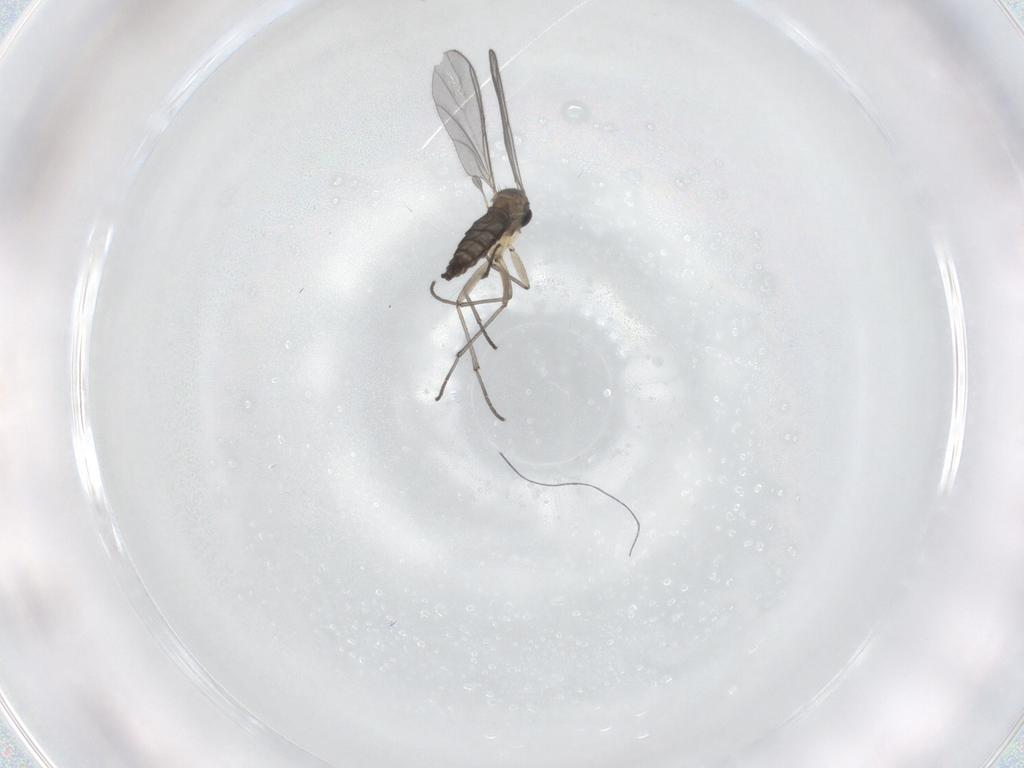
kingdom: Animalia
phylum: Arthropoda
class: Insecta
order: Diptera
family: Sciaridae
